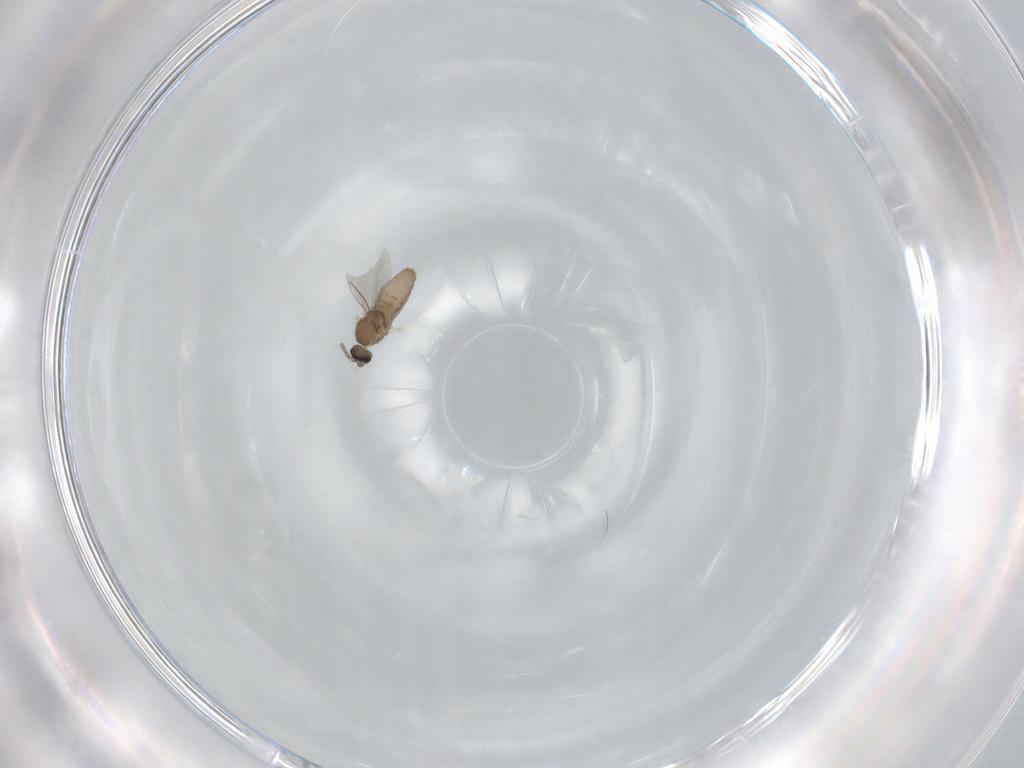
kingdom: Animalia
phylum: Arthropoda
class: Insecta
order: Diptera
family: Cecidomyiidae
